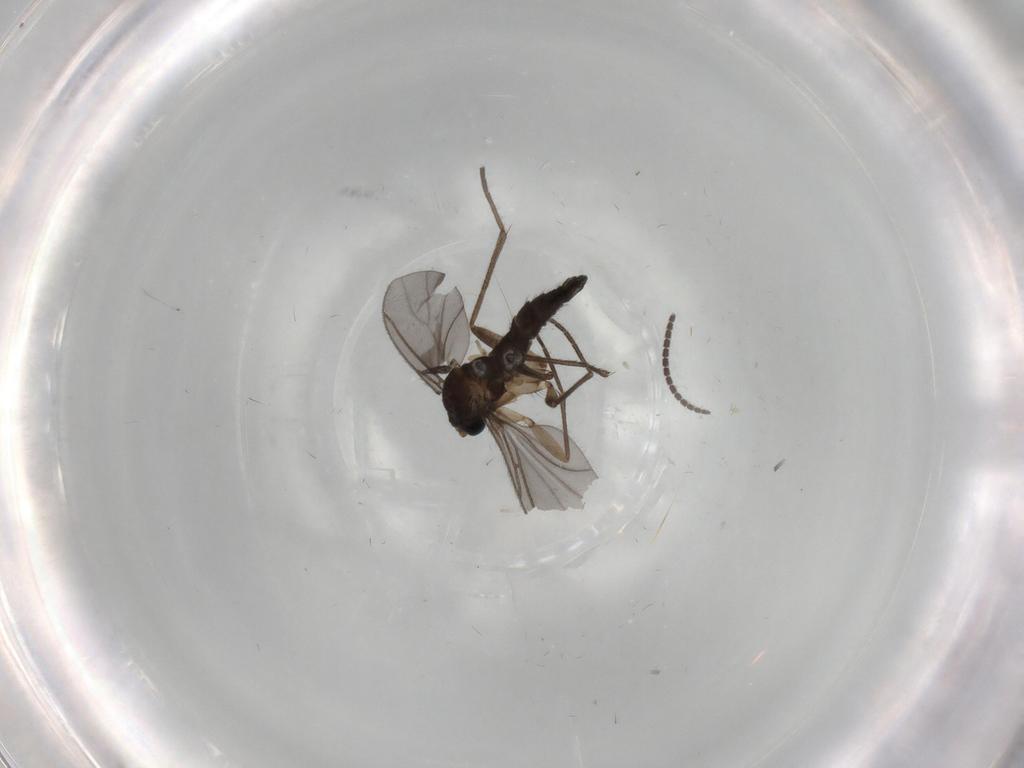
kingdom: Animalia
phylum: Arthropoda
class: Insecta
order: Diptera
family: Sciaridae
